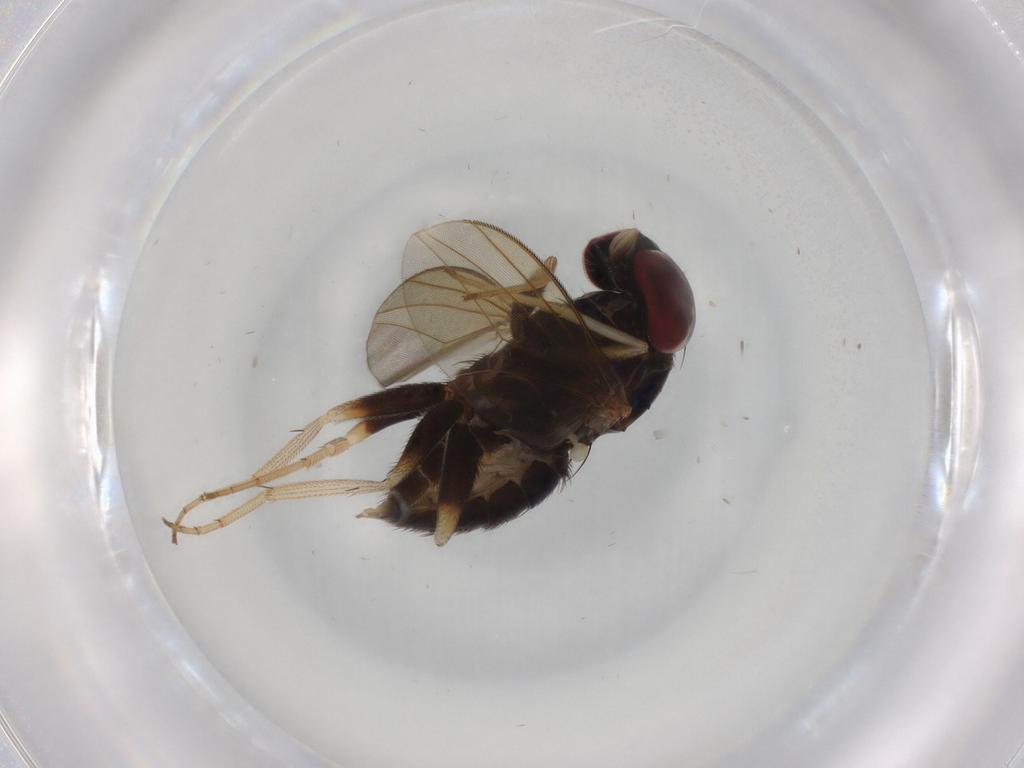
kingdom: Animalia
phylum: Arthropoda
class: Insecta
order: Diptera
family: Dolichopodidae
